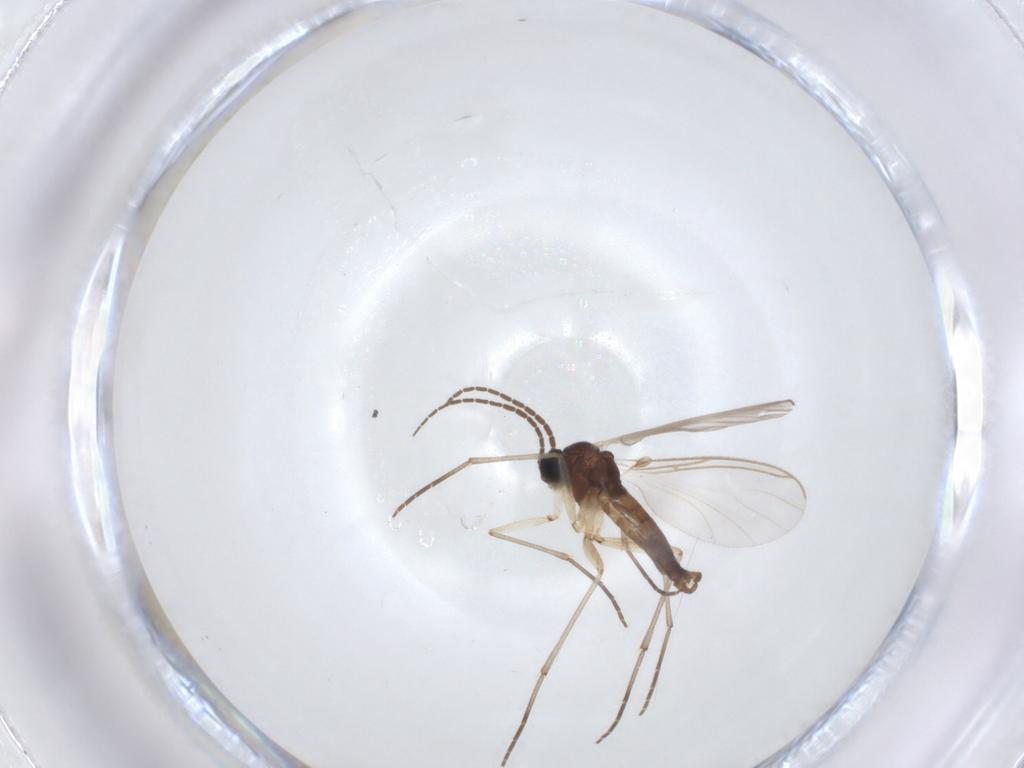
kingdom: Animalia
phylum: Arthropoda
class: Insecta
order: Diptera
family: Sciaridae
